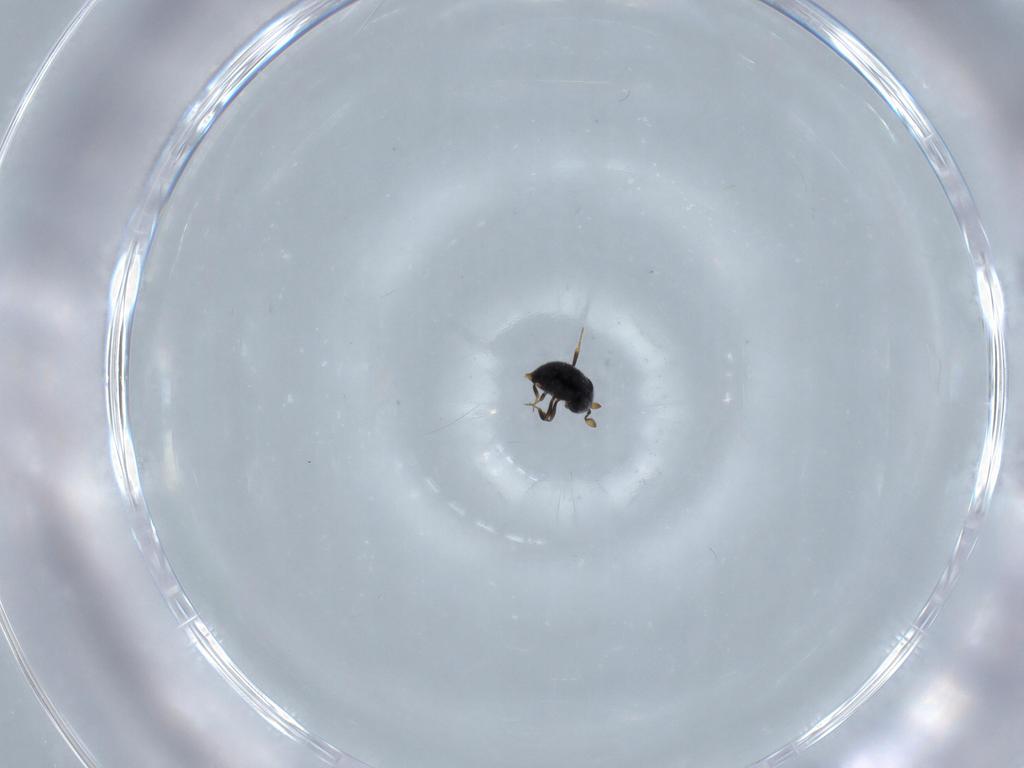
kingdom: Animalia
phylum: Arthropoda
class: Insecta
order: Hymenoptera
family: Scelionidae
